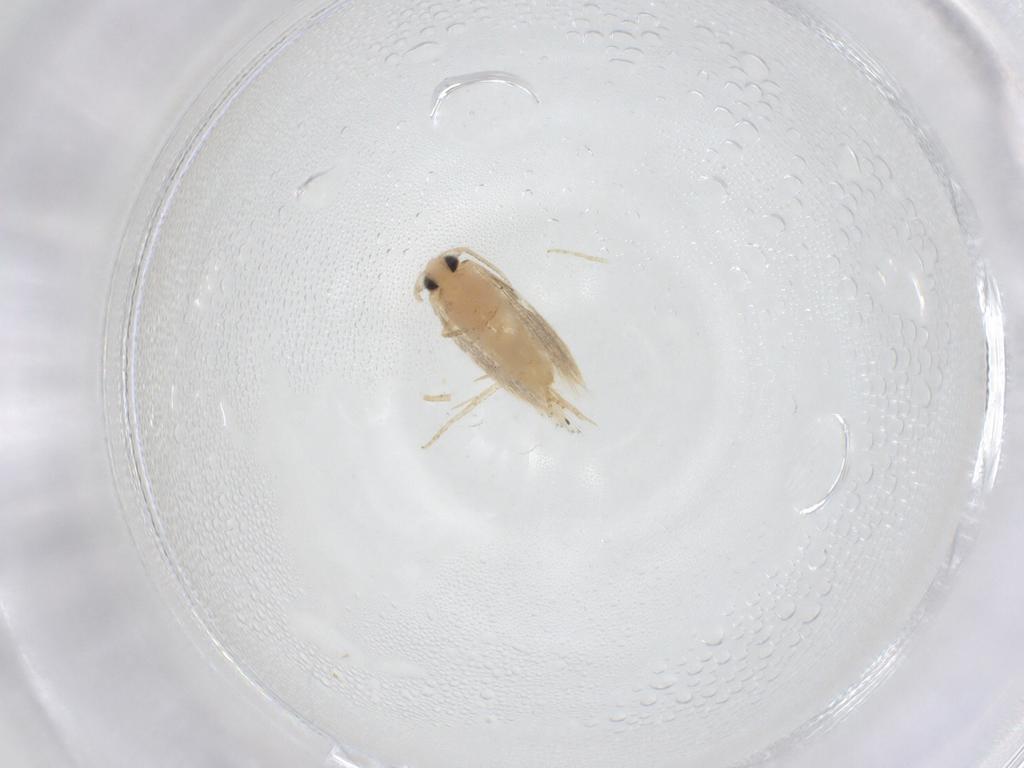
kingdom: Animalia
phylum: Arthropoda
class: Insecta
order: Lepidoptera
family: Opostegidae
